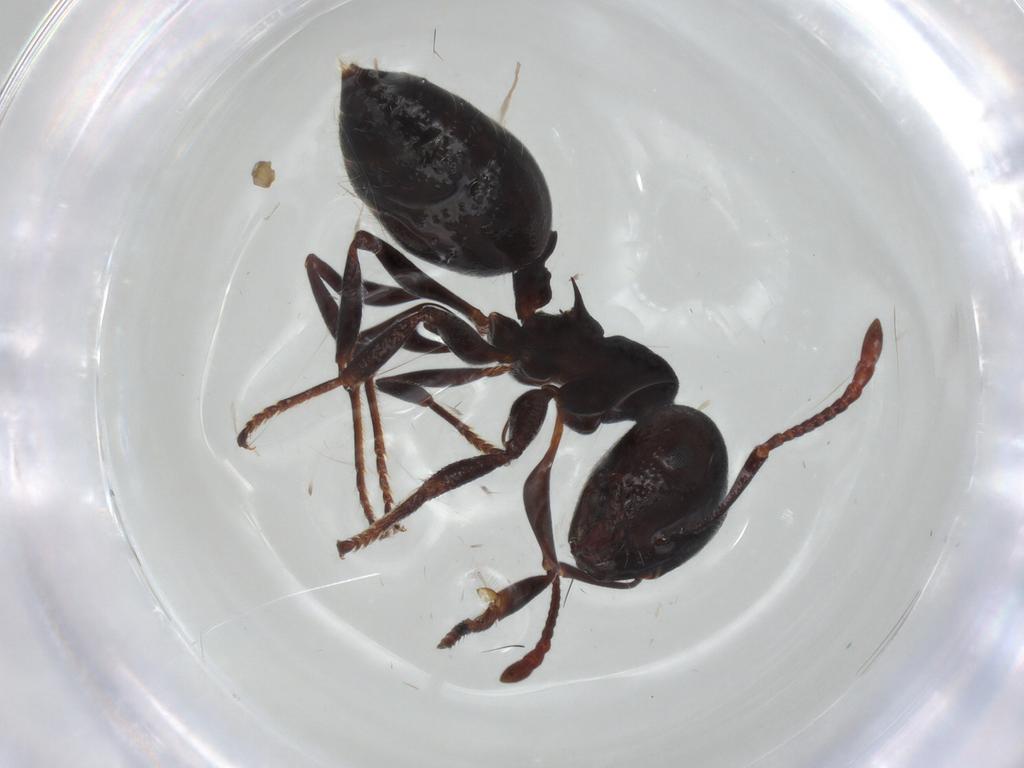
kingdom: Animalia
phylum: Arthropoda
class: Insecta
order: Hymenoptera
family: Formicidae
